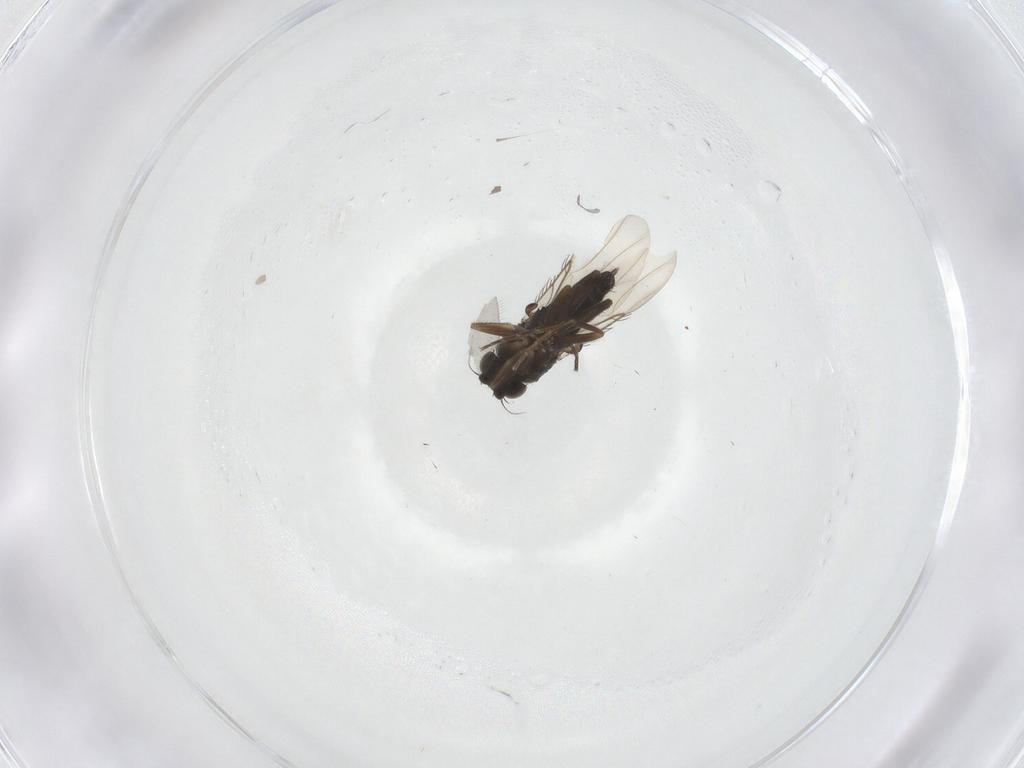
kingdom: Animalia
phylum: Arthropoda
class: Insecta
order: Diptera
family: Phoridae
